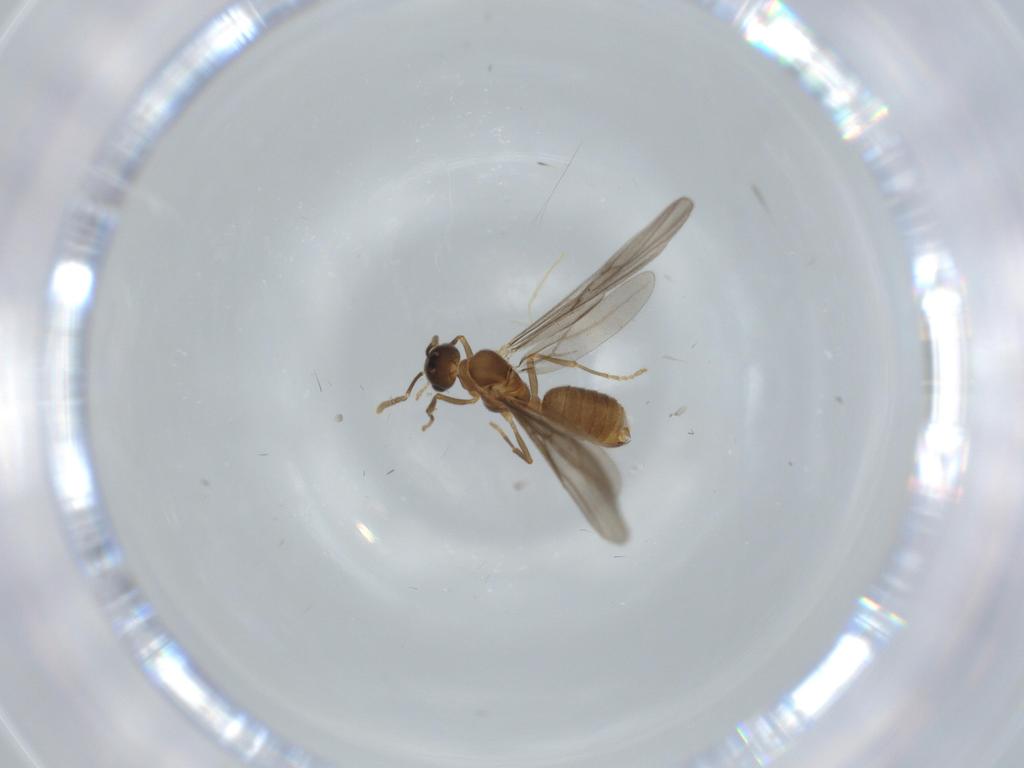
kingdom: Animalia
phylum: Arthropoda
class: Insecta
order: Hymenoptera
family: Formicidae
